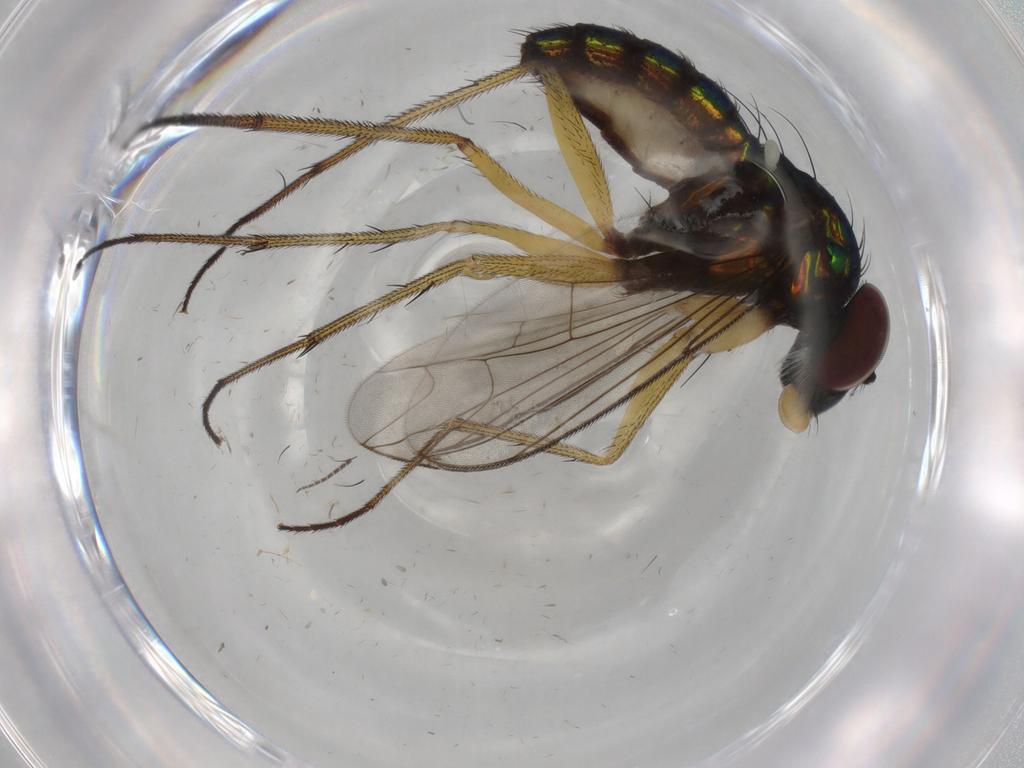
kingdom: Animalia
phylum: Arthropoda
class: Insecta
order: Diptera
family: Dolichopodidae
